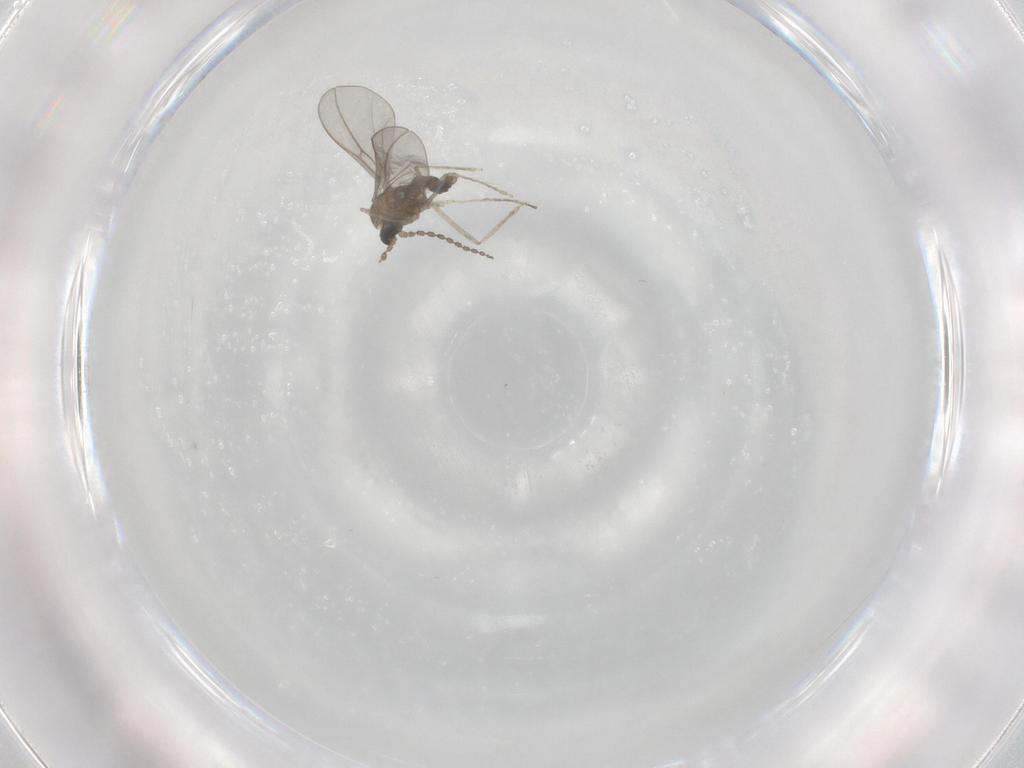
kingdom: Animalia
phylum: Arthropoda
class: Insecta
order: Diptera
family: Cecidomyiidae
